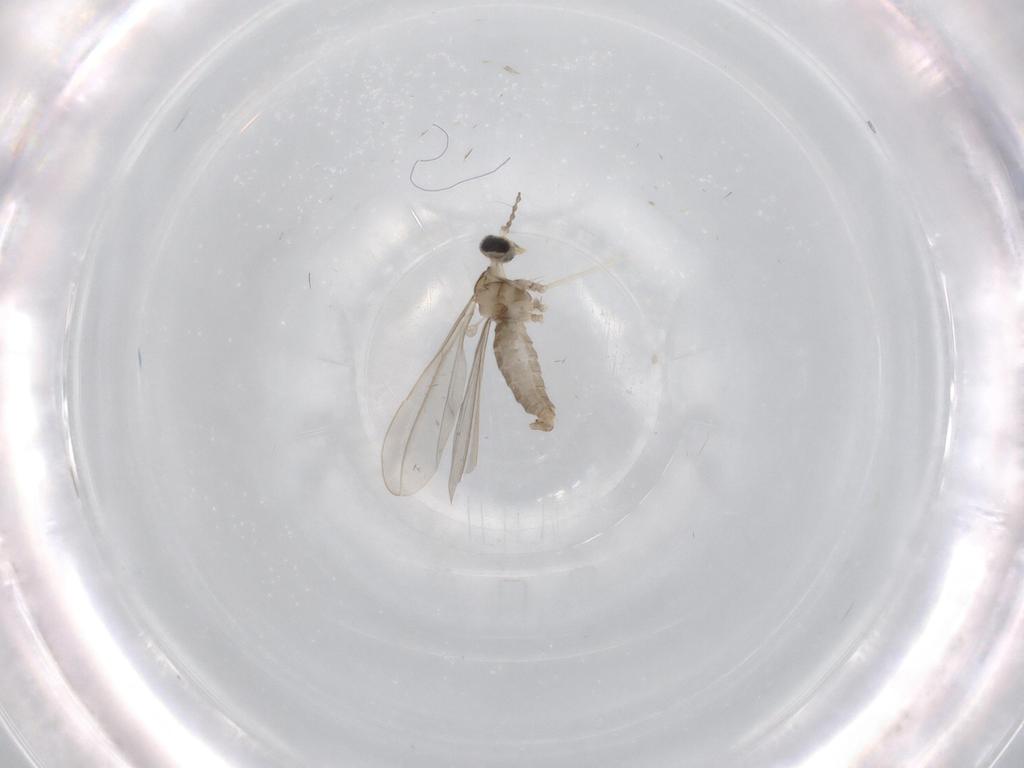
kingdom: Animalia
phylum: Arthropoda
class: Insecta
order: Diptera
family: Cecidomyiidae
